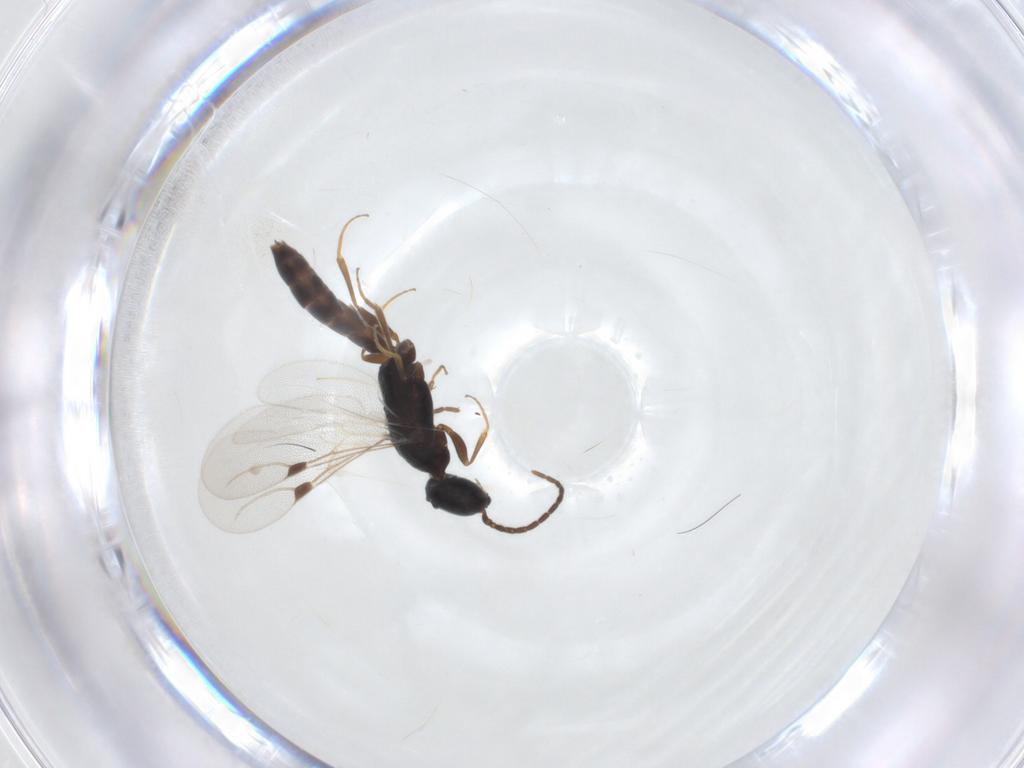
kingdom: Animalia
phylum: Arthropoda
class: Insecta
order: Hymenoptera
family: Bethylidae
